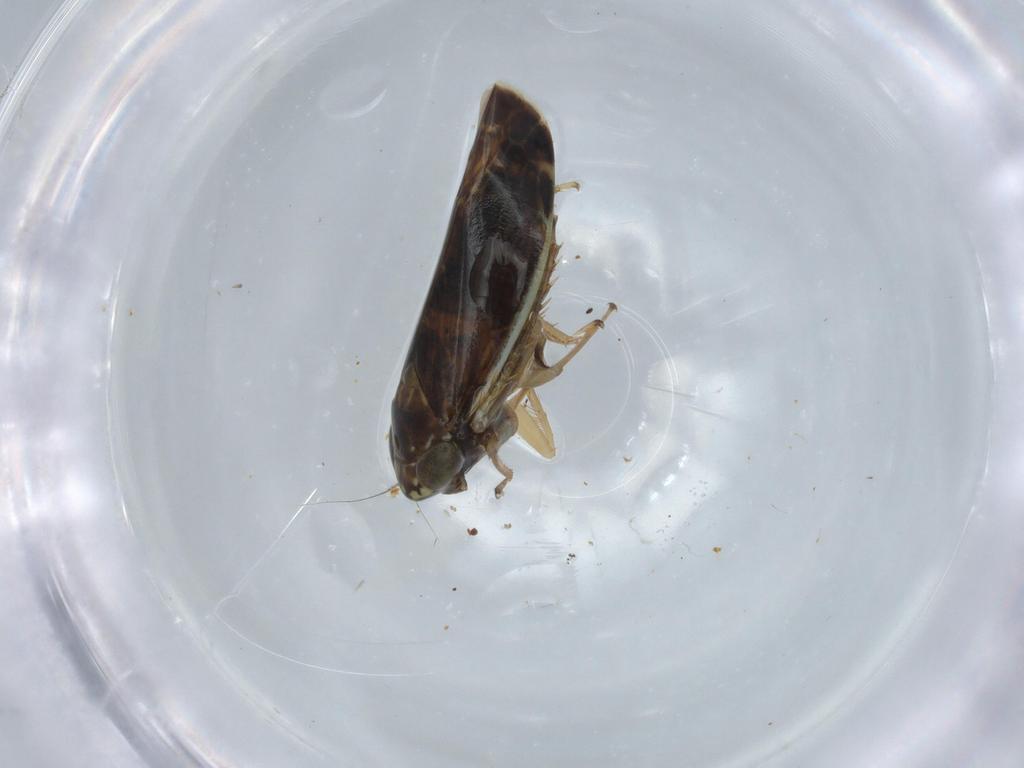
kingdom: Animalia
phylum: Arthropoda
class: Insecta
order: Hemiptera
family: Cicadellidae
